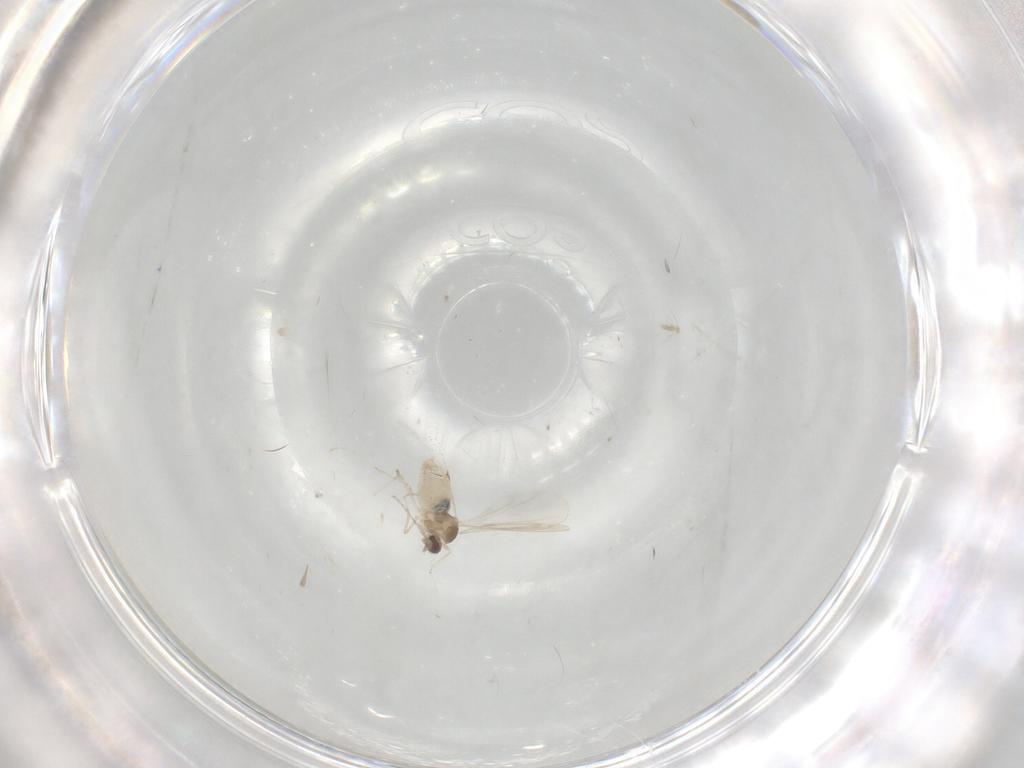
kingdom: Animalia
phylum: Arthropoda
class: Insecta
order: Diptera
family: Cecidomyiidae
